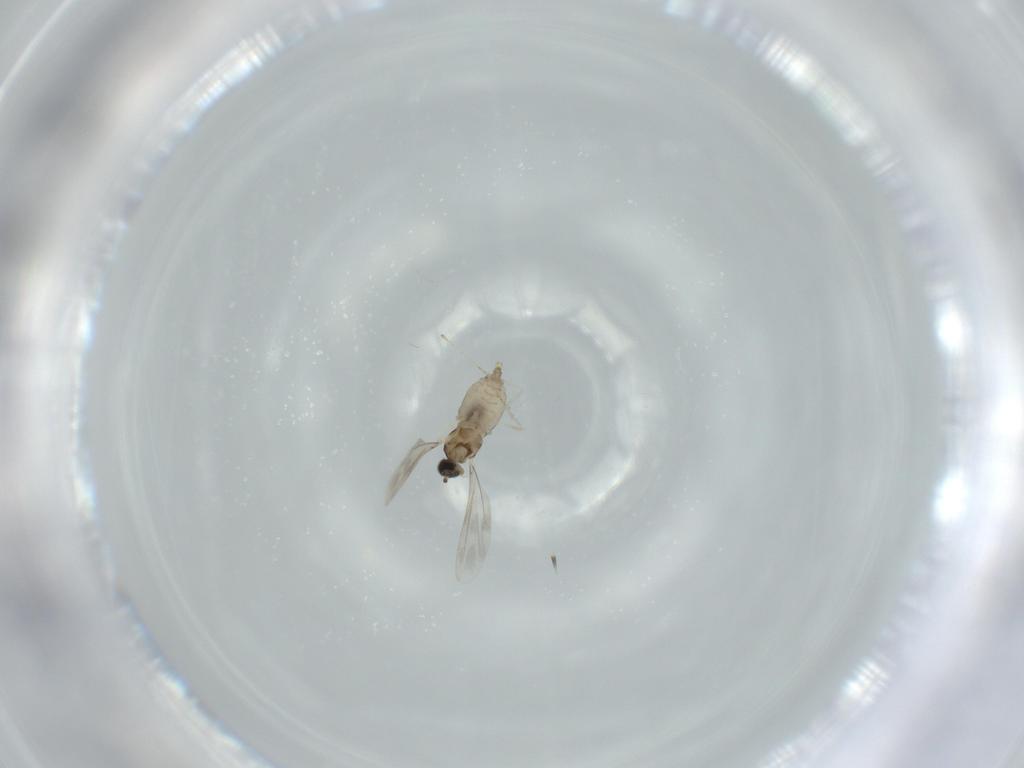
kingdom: Animalia
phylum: Arthropoda
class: Insecta
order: Diptera
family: Cecidomyiidae
